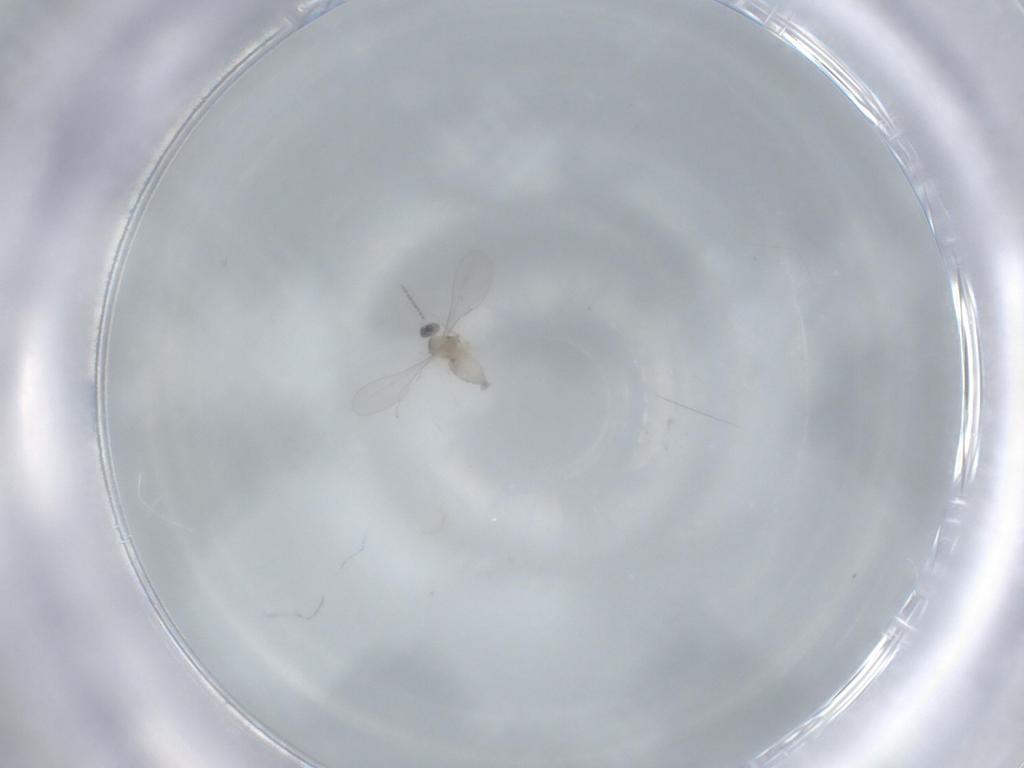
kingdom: Animalia
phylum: Arthropoda
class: Insecta
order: Diptera
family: Cecidomyiidae
